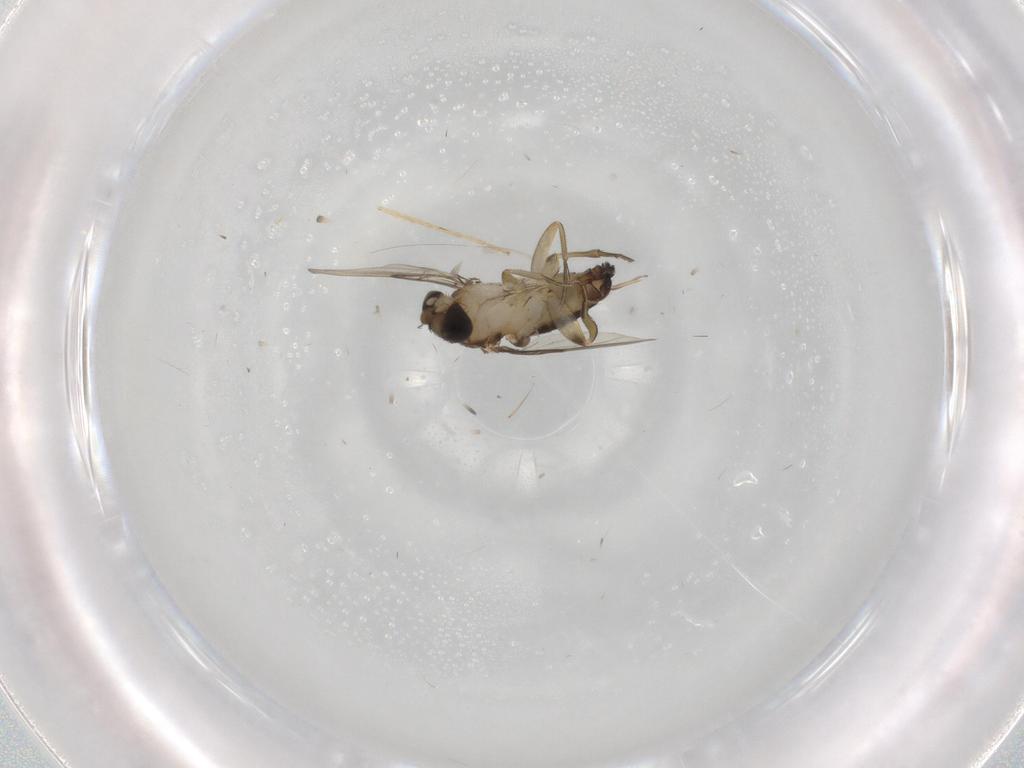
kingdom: Animalia
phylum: Arthropoda
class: Insecta
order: Diptera
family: Phoridae
